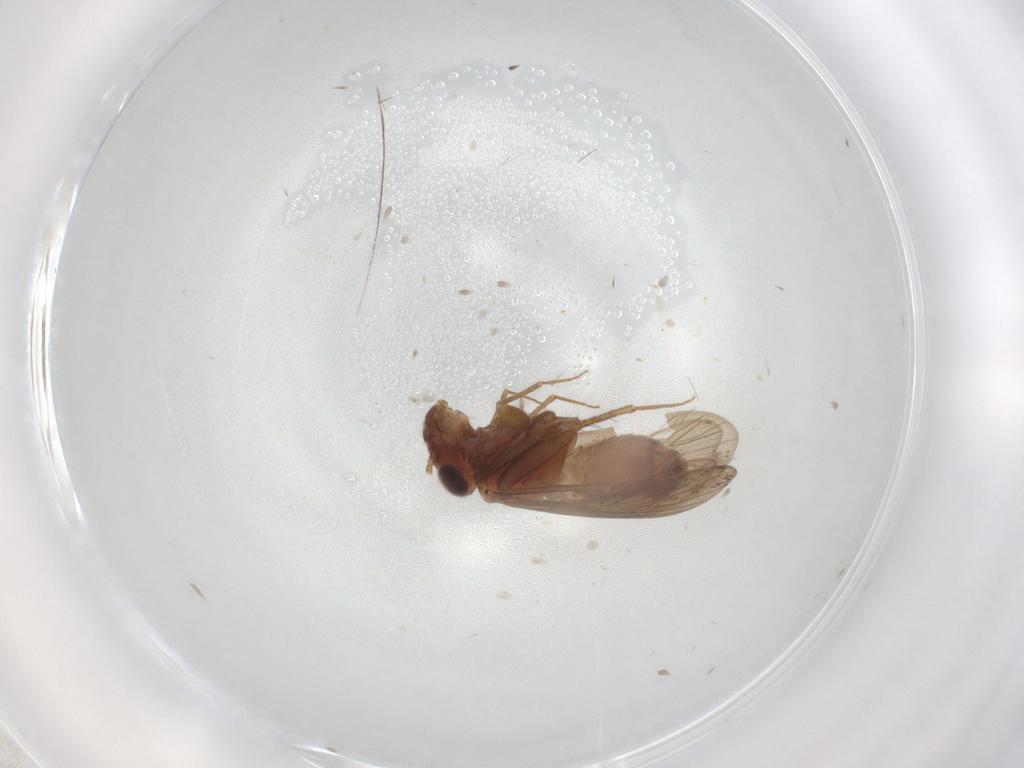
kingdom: Animalia
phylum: Arthropoda
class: Insecta
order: Psocodea
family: Lepidopsocidae
